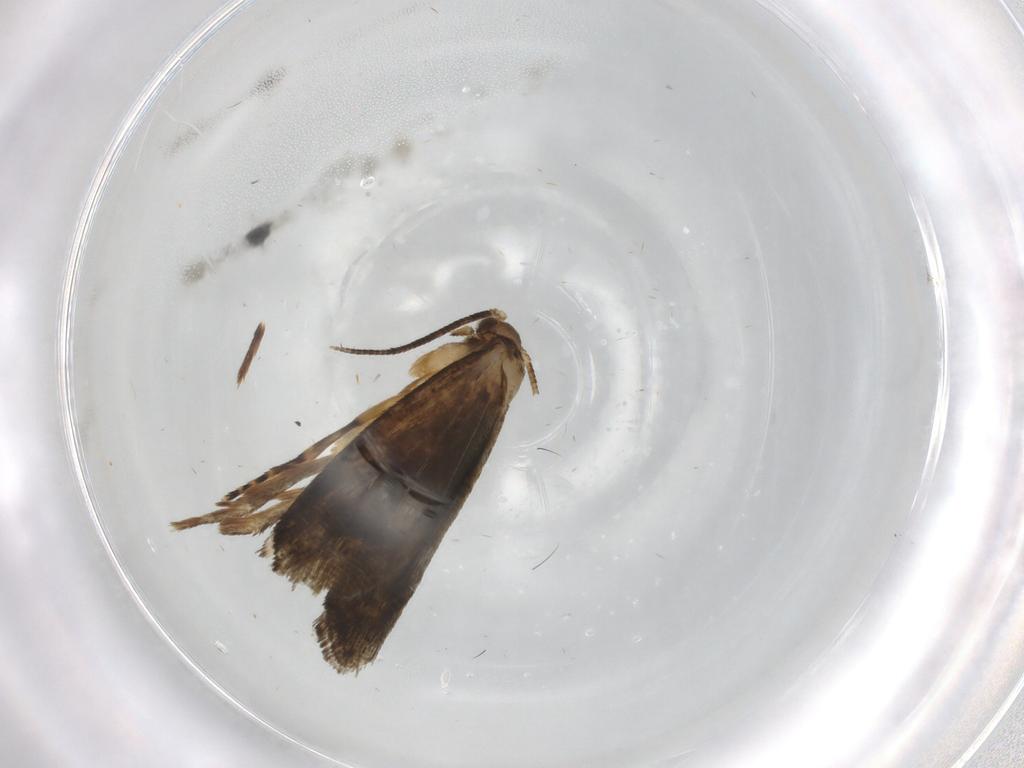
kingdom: Animalia
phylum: Arthropoda
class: Insecta
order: Lepidoptera
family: Crambidae
